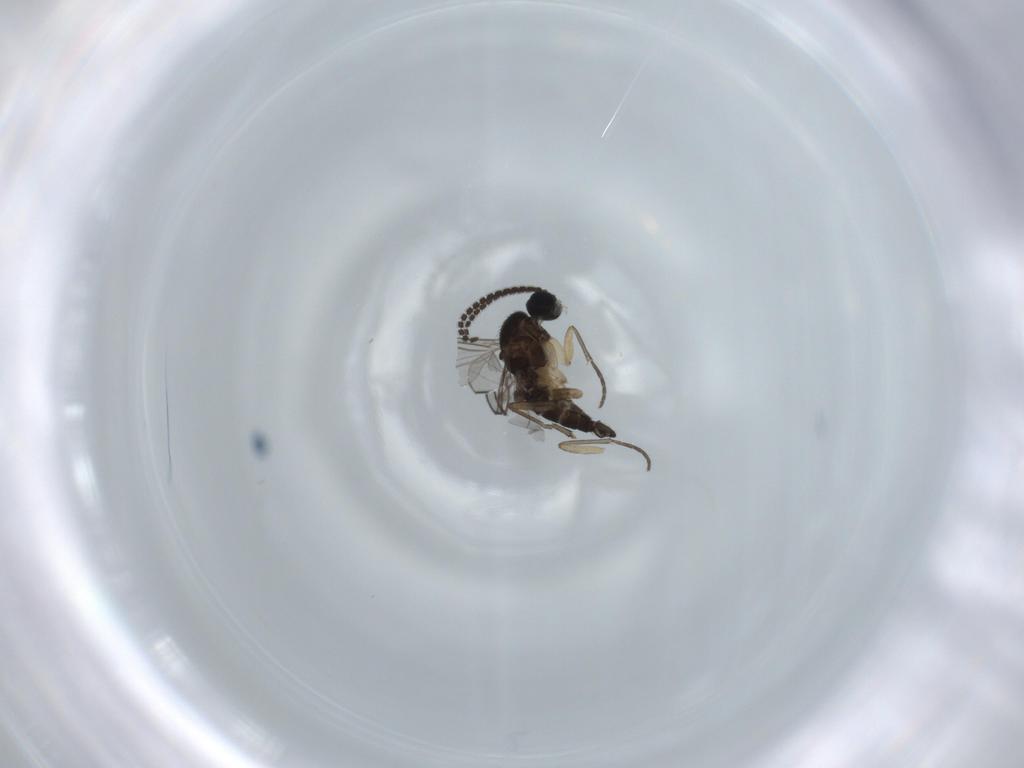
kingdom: Animalia
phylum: Arthropoda
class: Insecta
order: Diptera
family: Sciaridae
